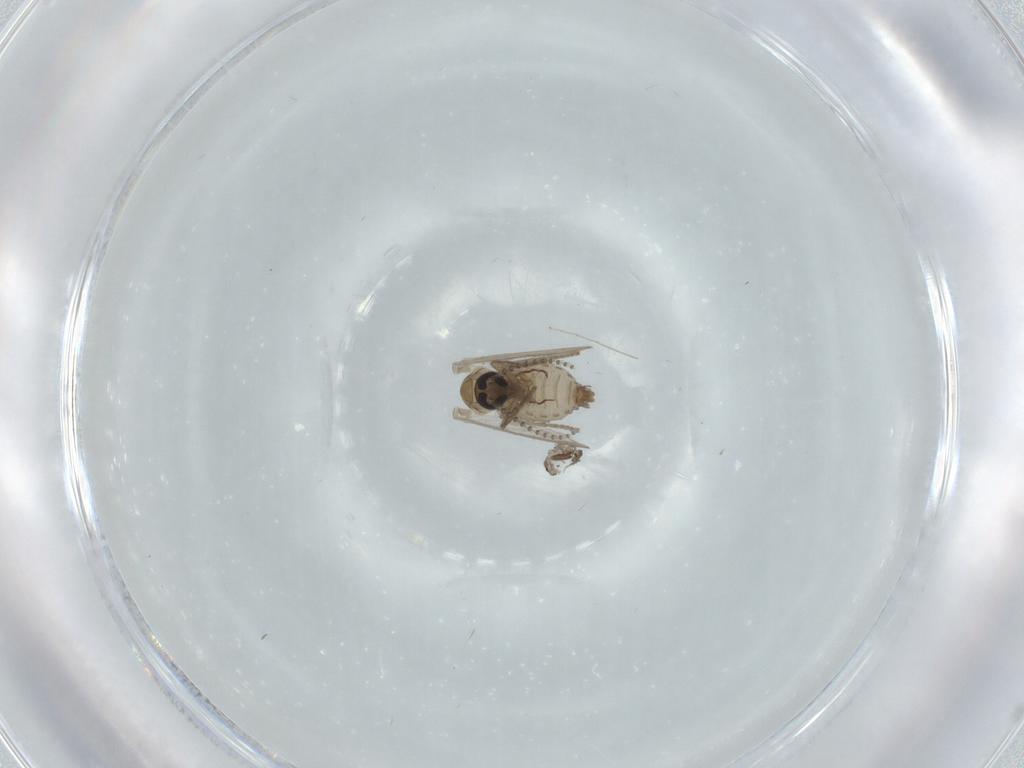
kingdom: Animalia
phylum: Arthropoda
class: Insecta
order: Diptera
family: Psychodidae
